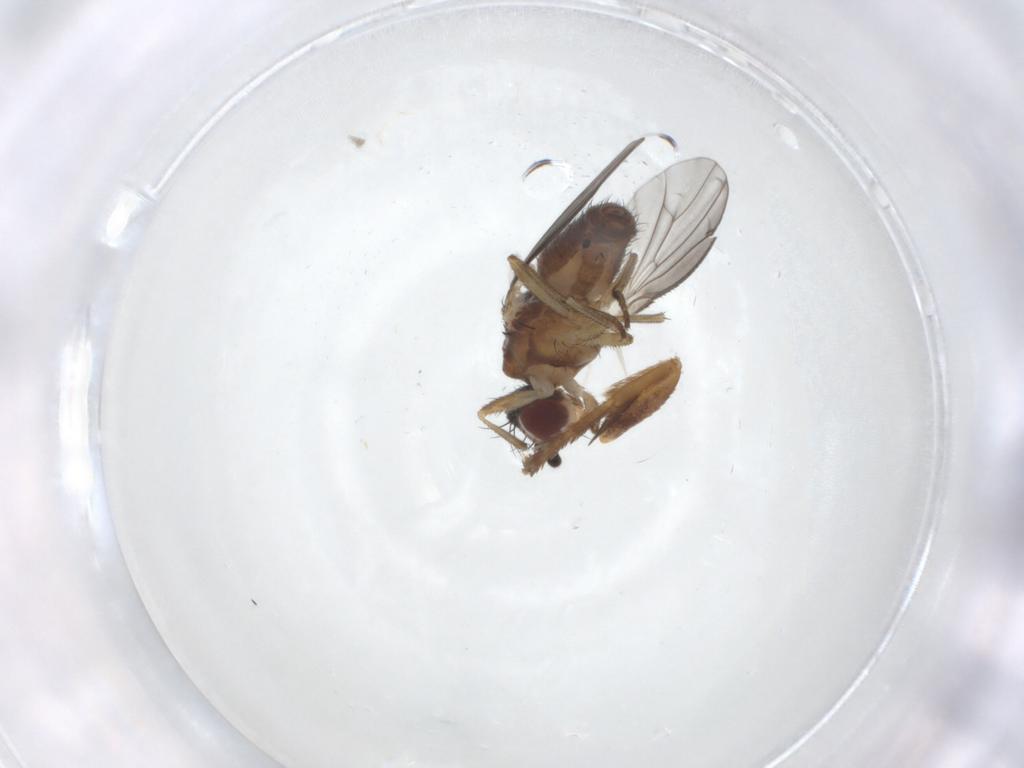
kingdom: Animalia
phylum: Arthropoda
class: Insecta
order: Diptera
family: Heleomyzidae
